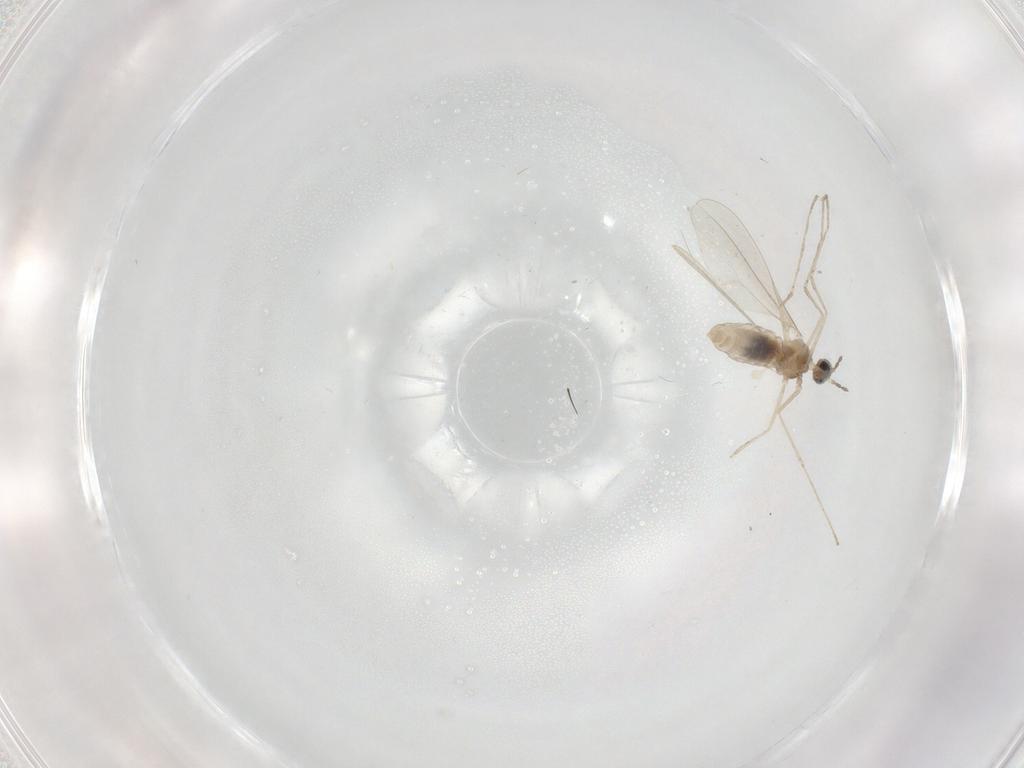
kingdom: Animalia
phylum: Arthropoda
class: Insecta
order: Diptera
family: Cecidomyiidae
